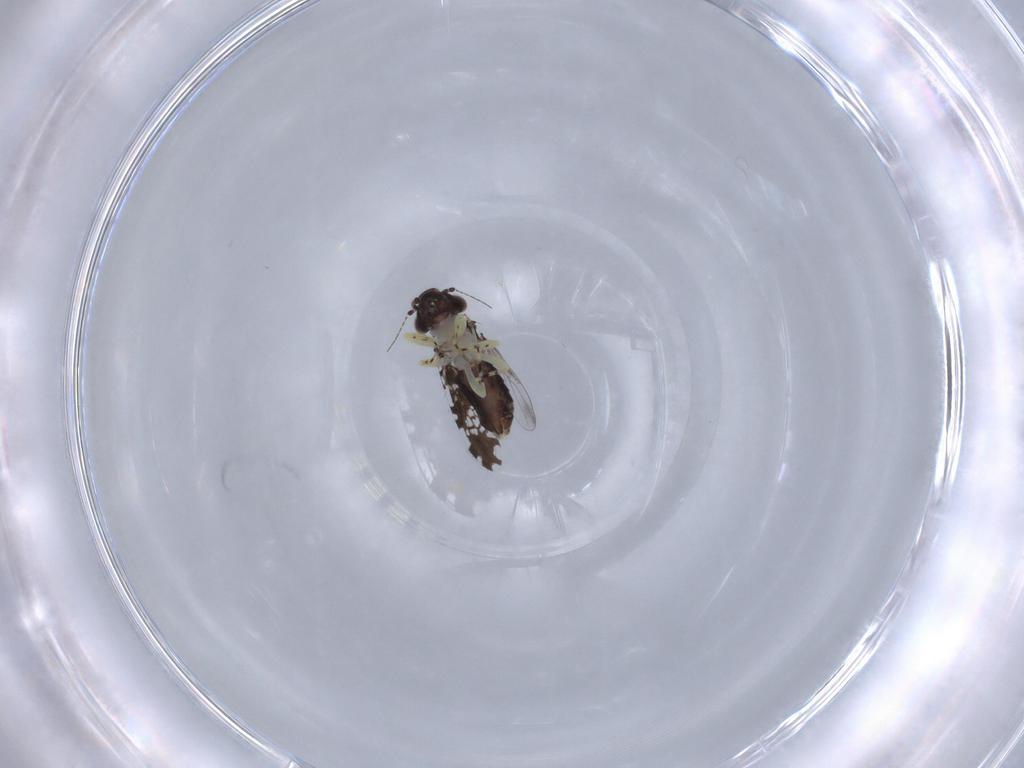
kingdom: Animalia
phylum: Arthropoda
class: Insecta
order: Psocodea
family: Psoquillidae
